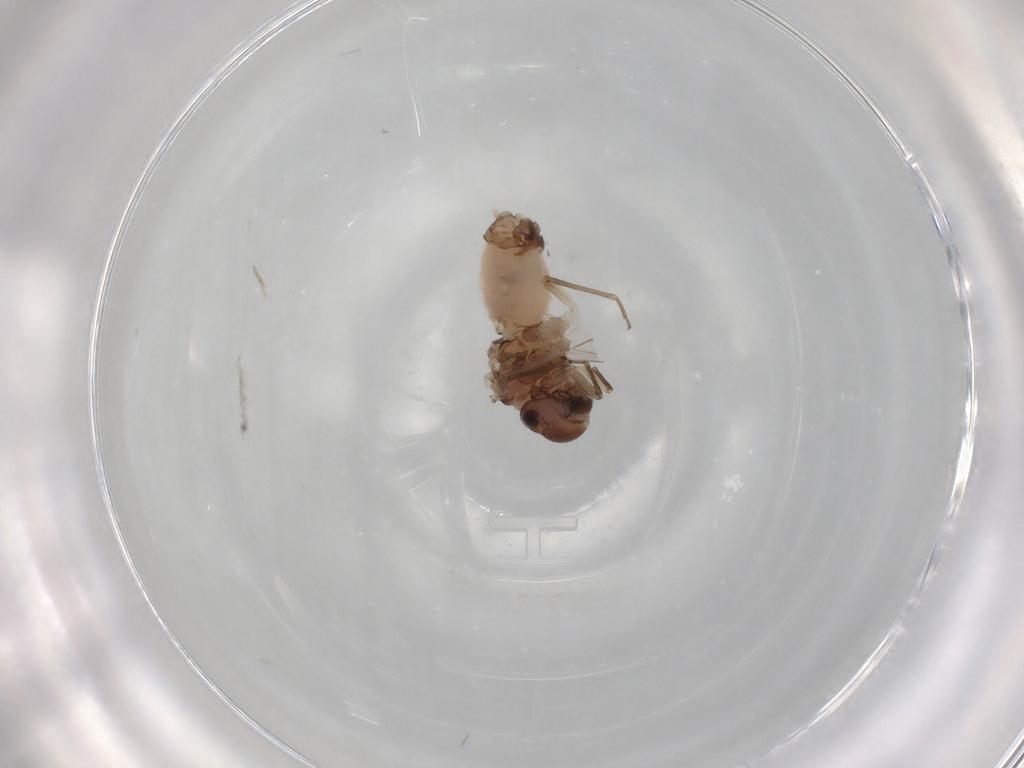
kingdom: Animalia
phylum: Arthropoda
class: Insecta
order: Psocodea
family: Peripsocidae
